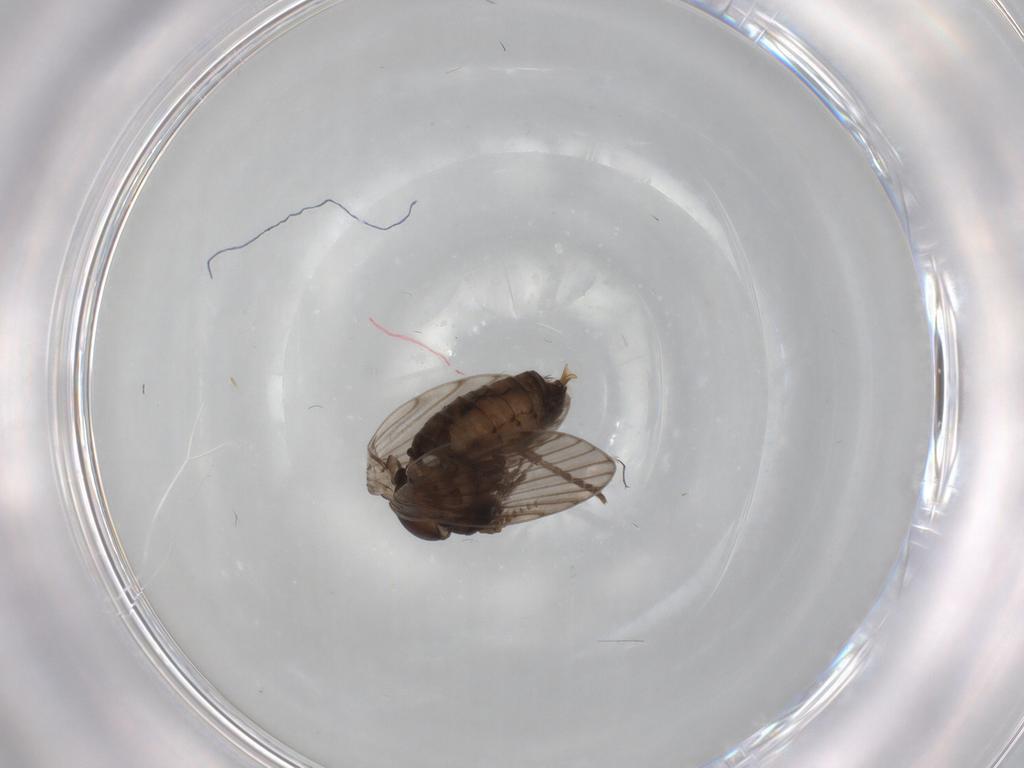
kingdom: Animalia
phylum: Arthropoda
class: Insecta
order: Diptera
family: Psychodidae
